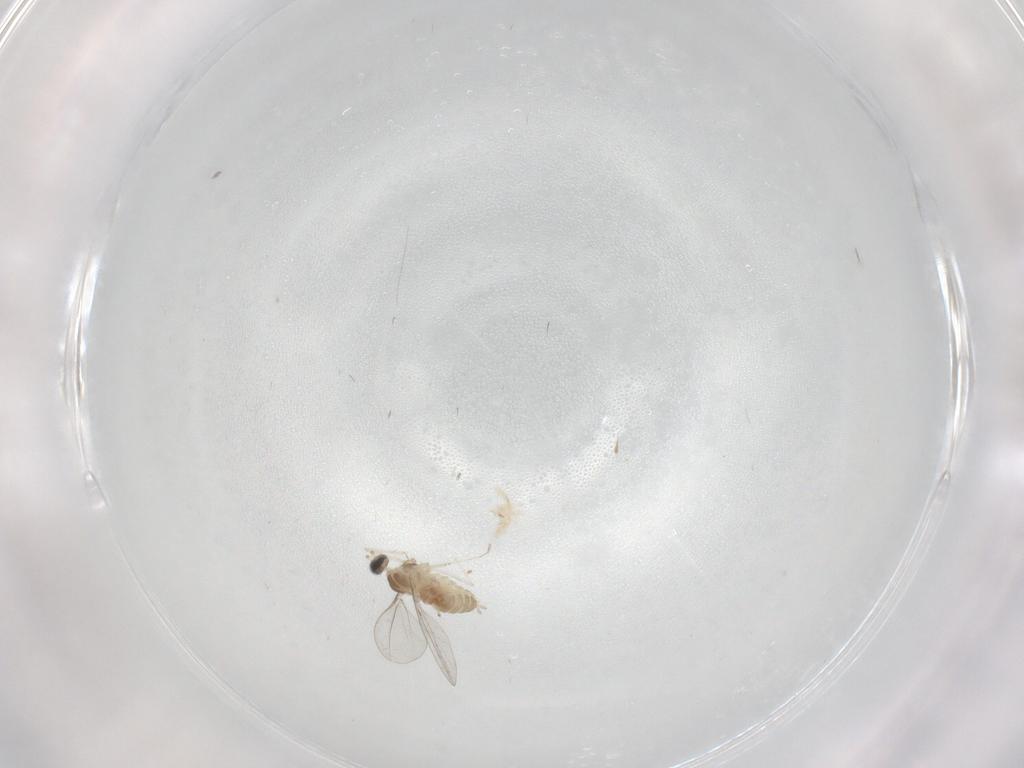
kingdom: Animalia
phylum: Arthropoda
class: Insecta
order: Diptera
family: Cecidomyiidae
